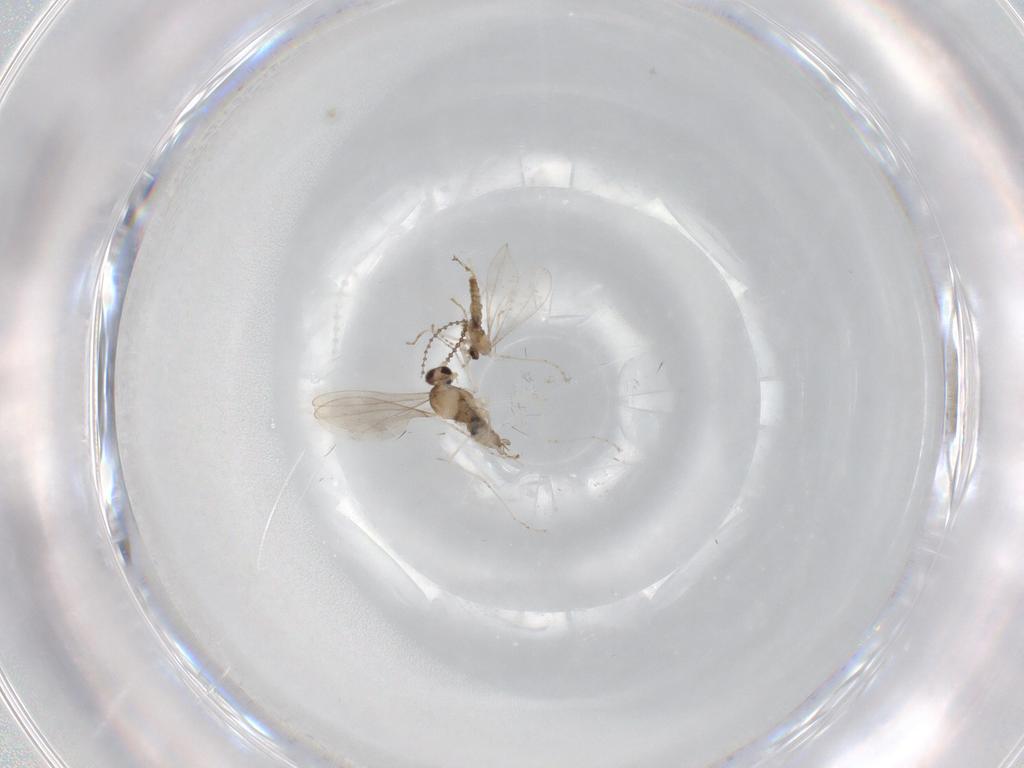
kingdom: Animalia
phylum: Arthropoda
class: Insecta
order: Diptera
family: Cecidomyiidae
